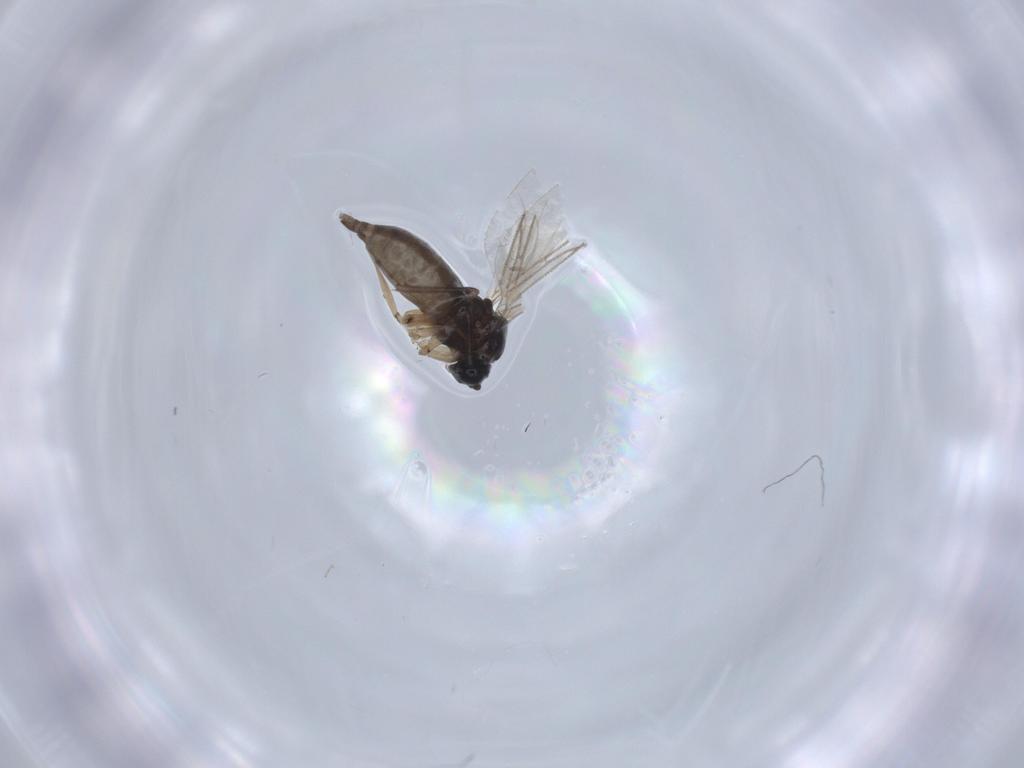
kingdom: Animalia
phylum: Arthropoda
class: Insecta
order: Diptera
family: Sciaridae
